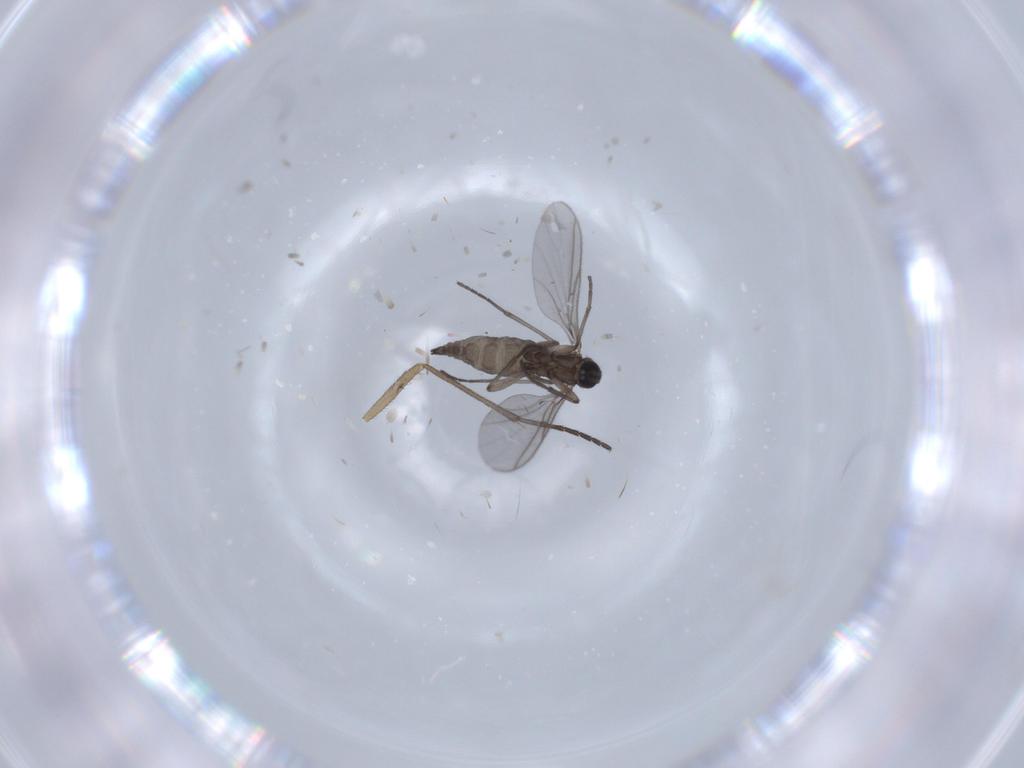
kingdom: Animalia
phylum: Arthropoda
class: Insecta
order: Diptera
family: Sciaridae
